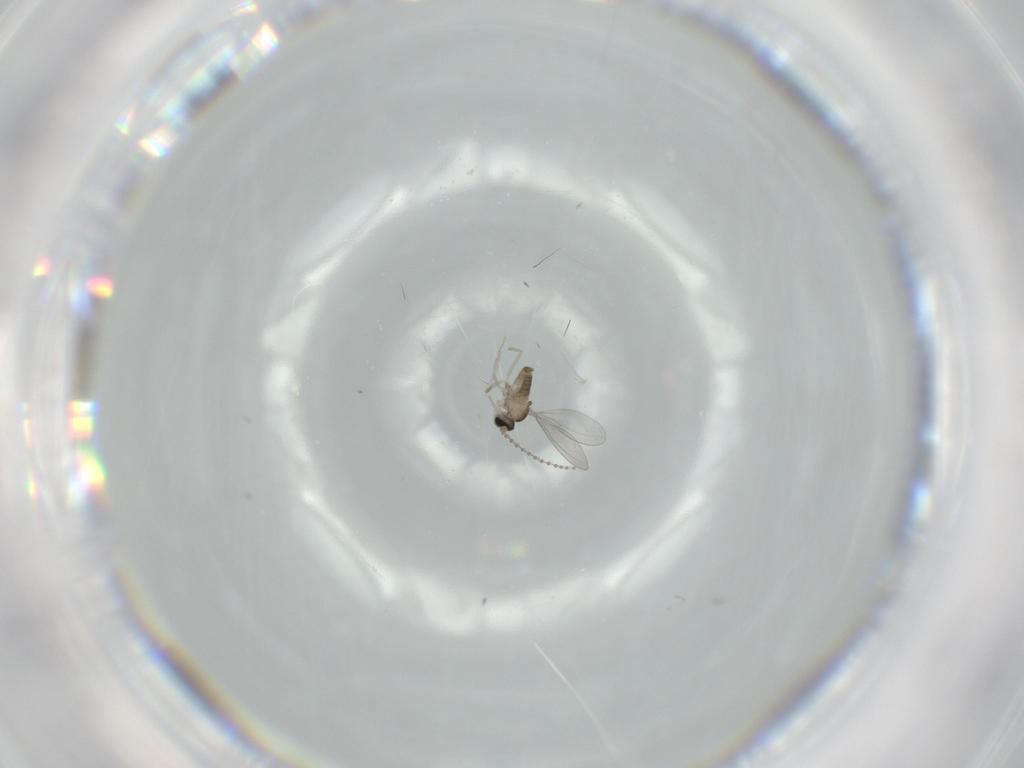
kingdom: Animalia
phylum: Arthropoda
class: Insecta
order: Diptera
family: Cecidomyiidae
